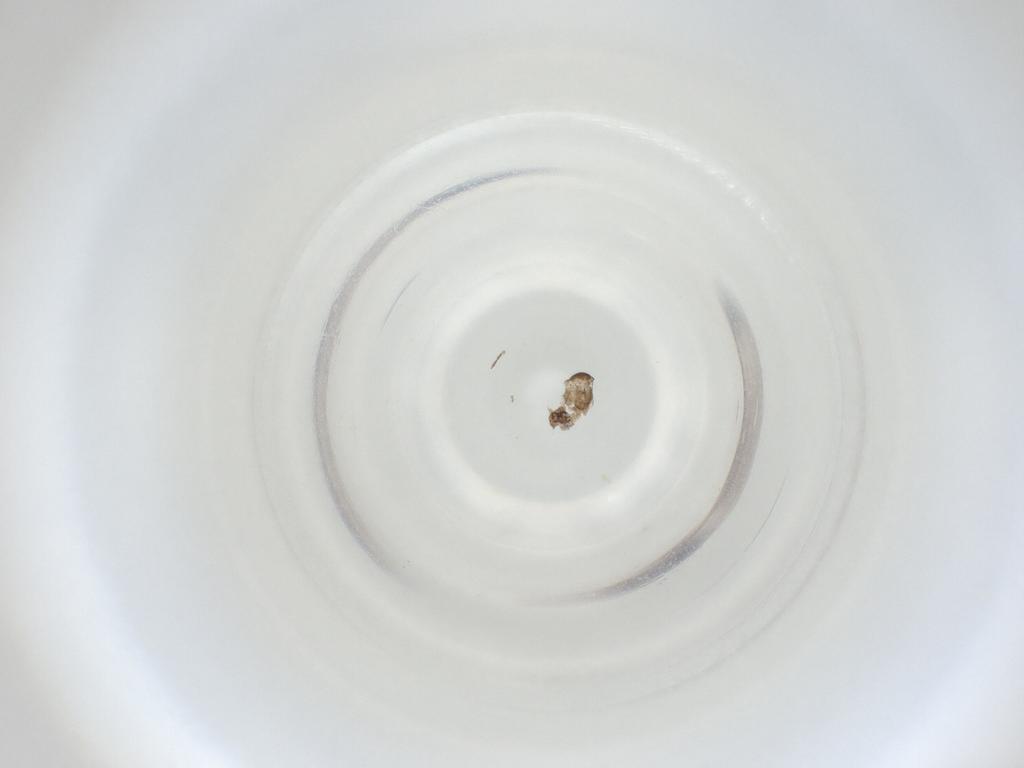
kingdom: Animalia
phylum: Arthropoda
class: Insecta
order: Diptera
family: Cecidomyiidae
